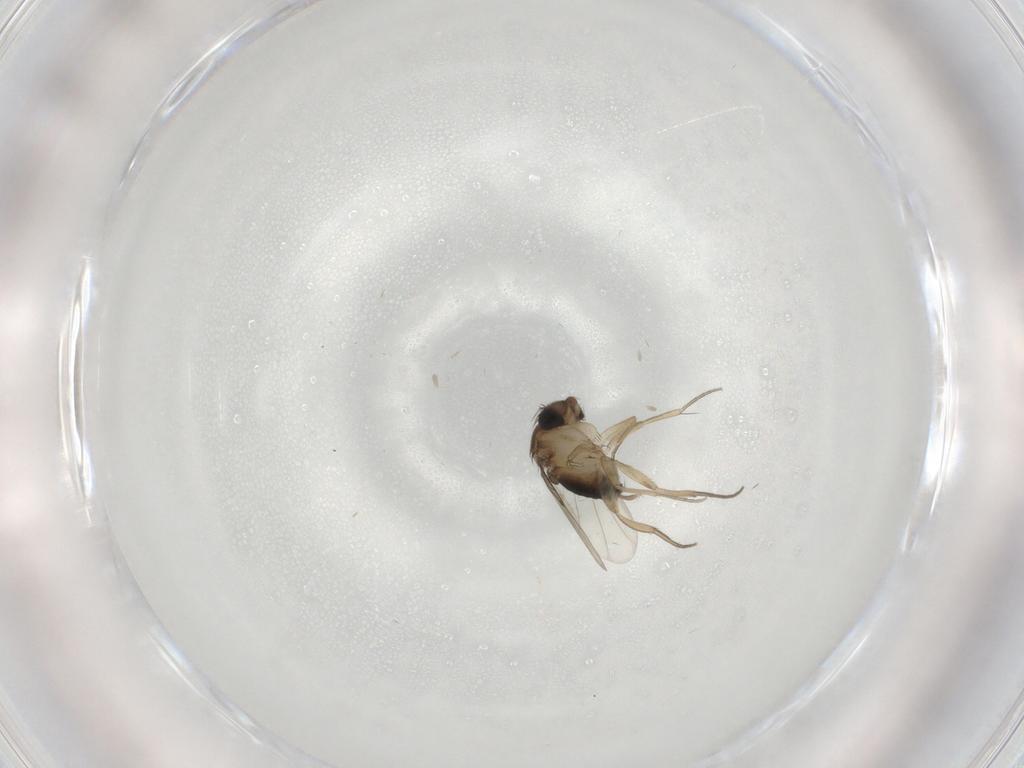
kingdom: Animalia
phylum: Arthropoda
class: Insecta
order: Diptera
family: Cecidomyiidae
